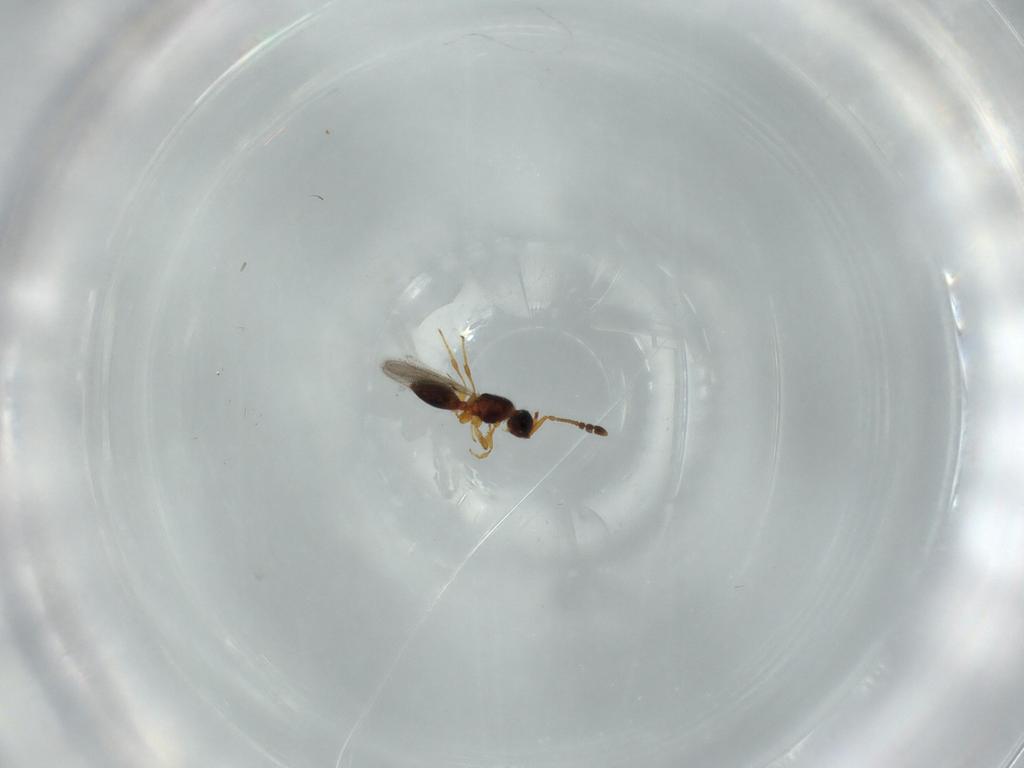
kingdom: Animalia
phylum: Arthropoda
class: Insecta
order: Hymenoptera
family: Diapriidae
